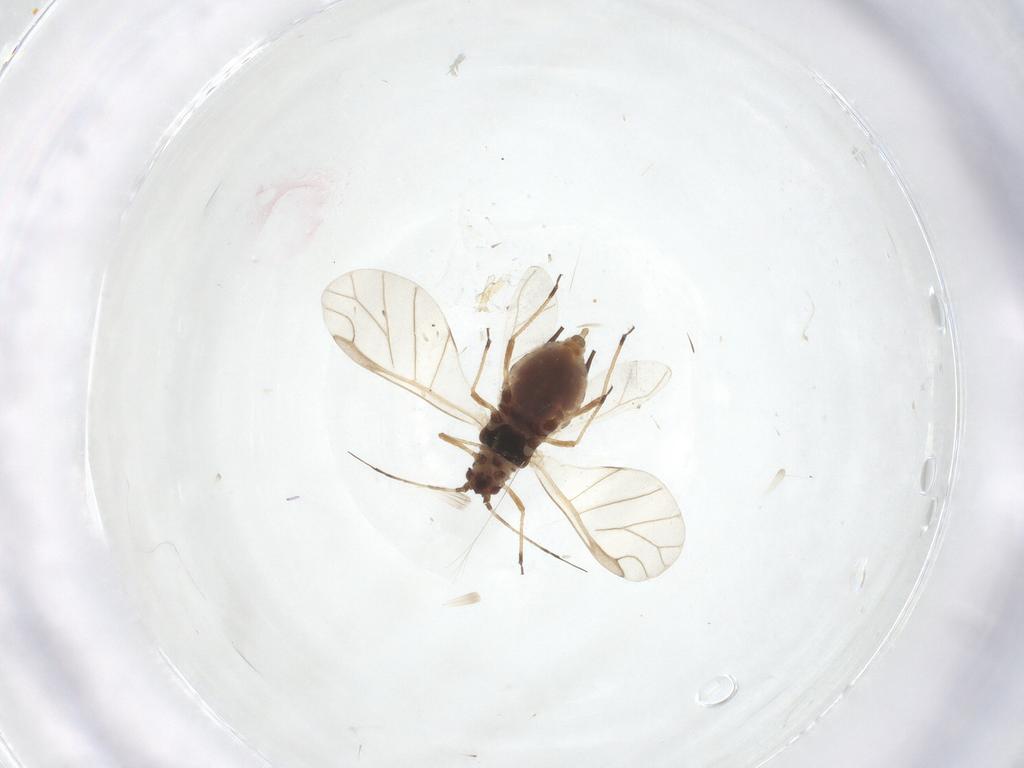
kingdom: Animalia
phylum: Arthropoda
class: Insecta
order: Hemiptera
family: Aphididae
